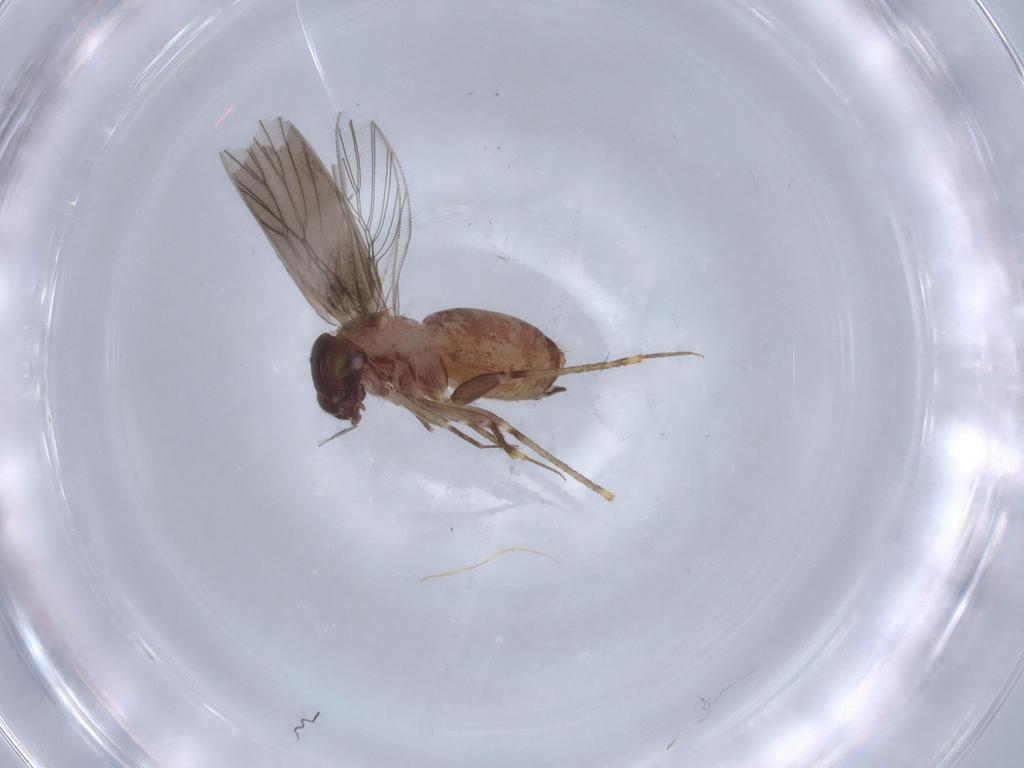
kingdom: Animalia
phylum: Arthropoda
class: Insecta
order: Psocodea
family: Lepidopsocidae
